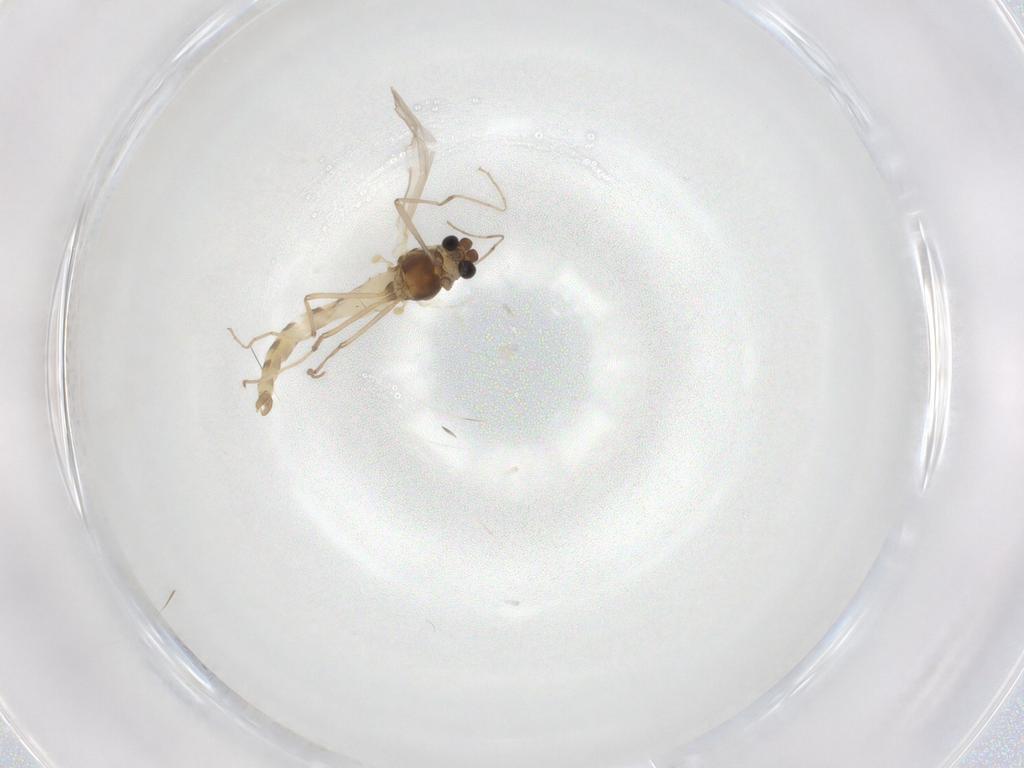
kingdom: Animalia
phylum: Arthropoda
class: Insecta
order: Diptera
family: Chironomidae
